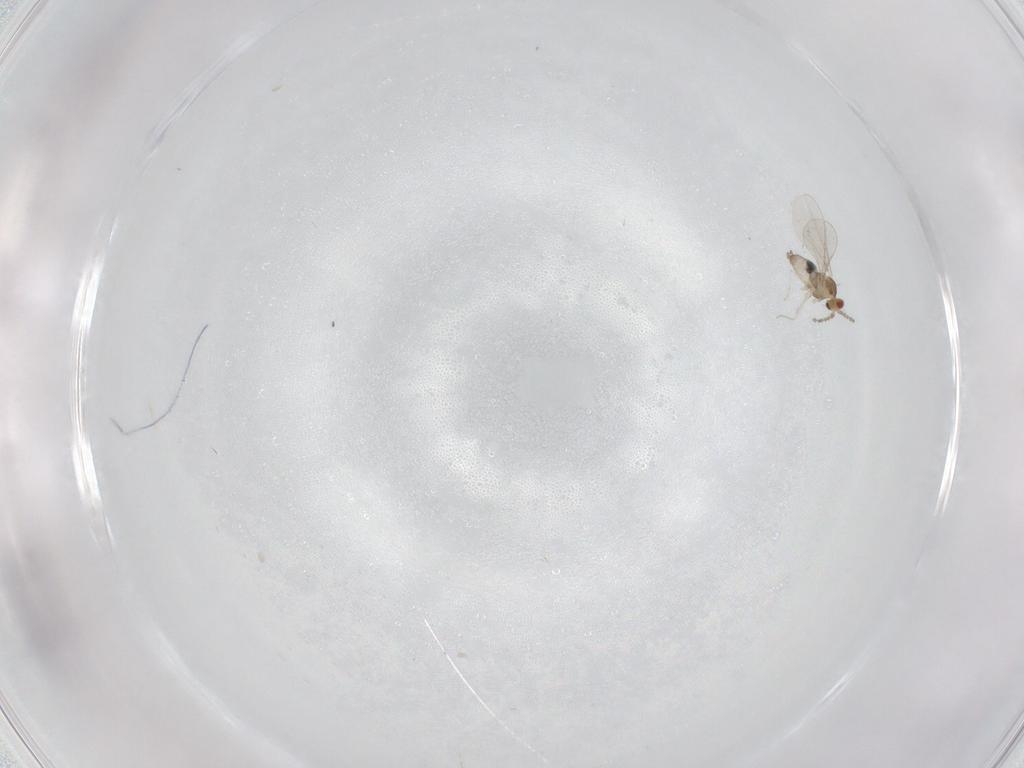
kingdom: Animalia
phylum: Arthropoda
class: Insecta
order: Diptera
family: Cecidomyiidae
